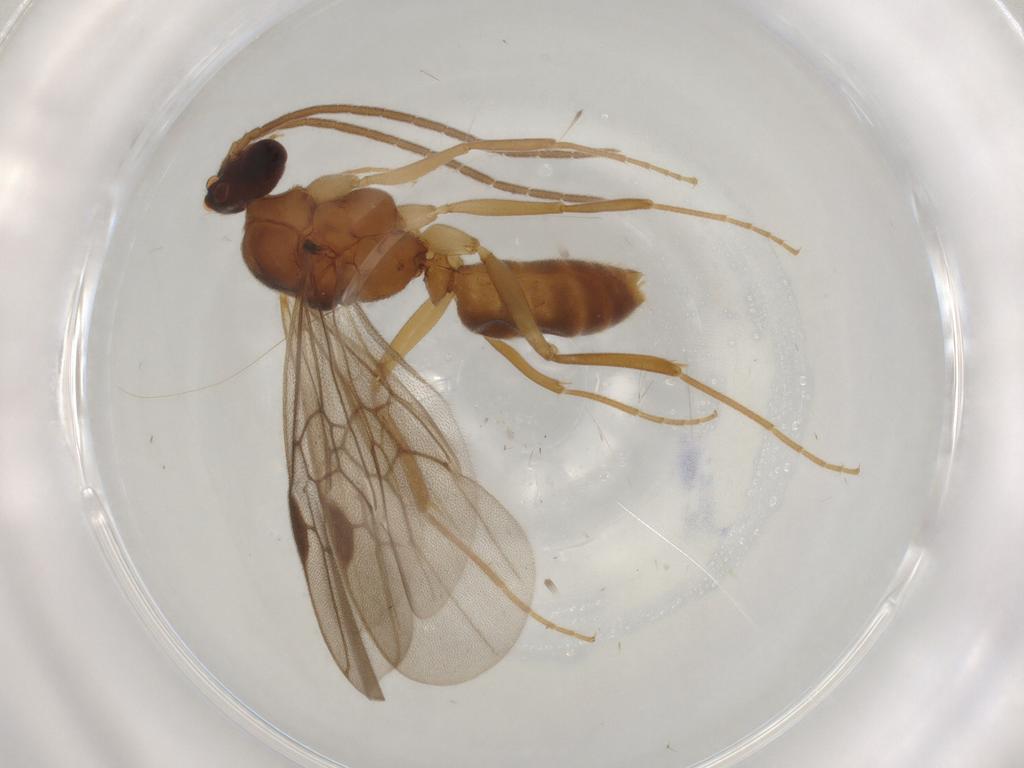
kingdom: Animalia
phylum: Arthropoda
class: Insecta
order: Hymenoptera
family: Formicidae
